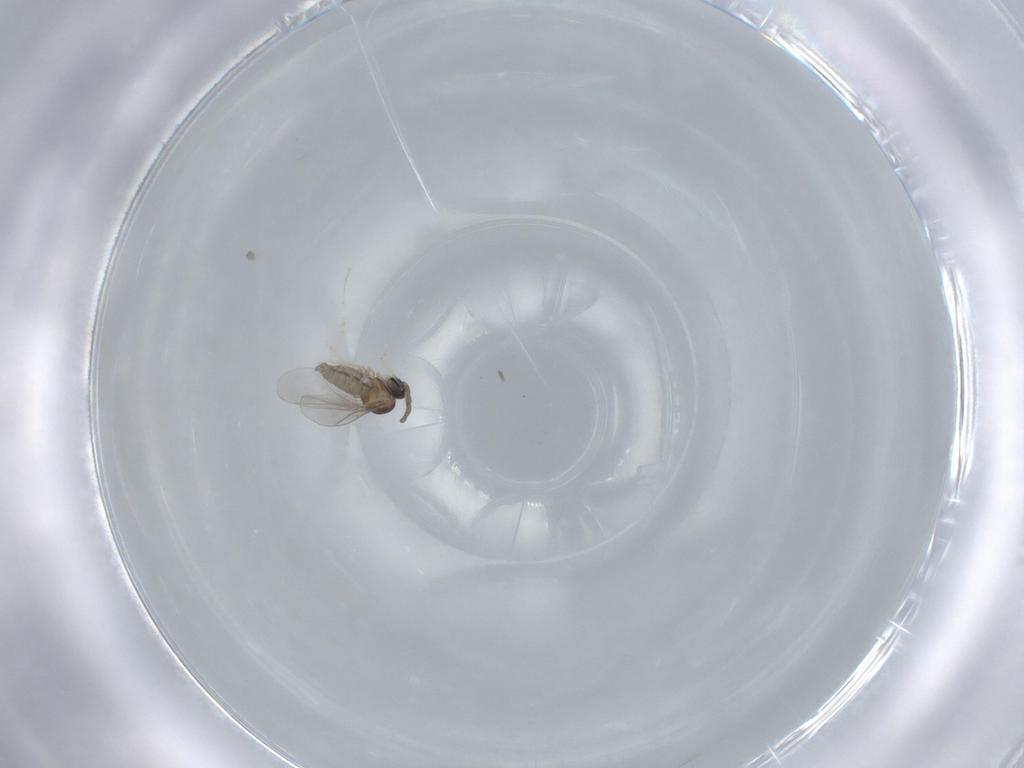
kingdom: Animalia
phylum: Arthropoda
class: Insecta
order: Diptera
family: Cecidomyiidae
